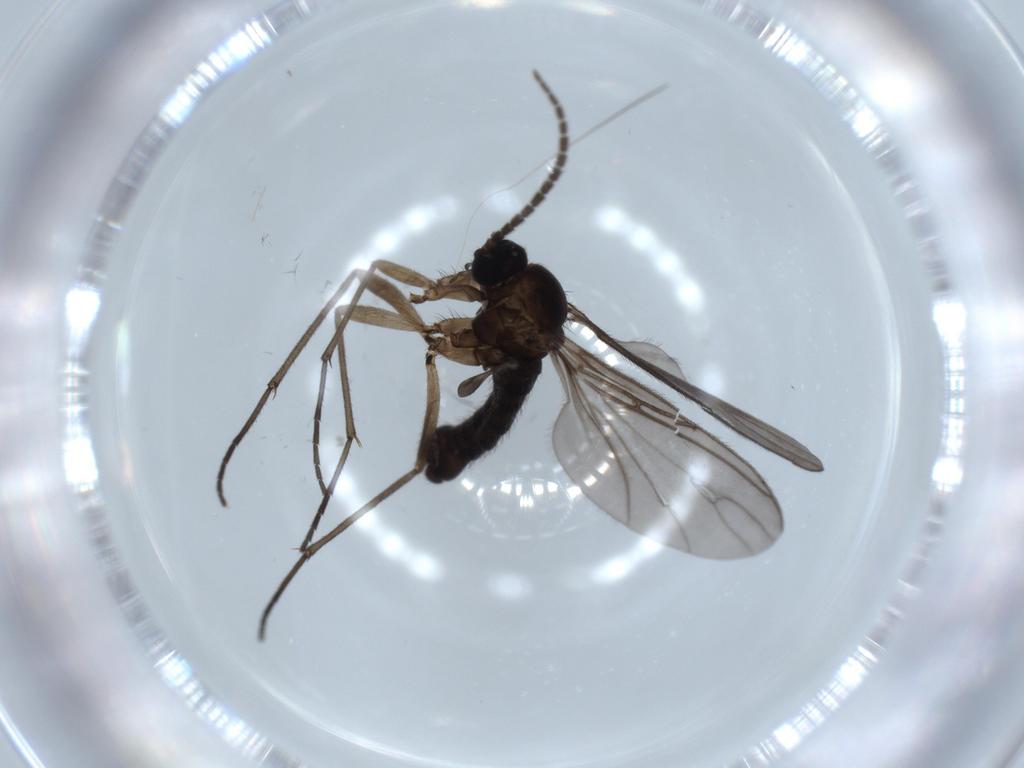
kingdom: Animalia
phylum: Arthropoda
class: Insecta
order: Diptera
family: Sciaridae
